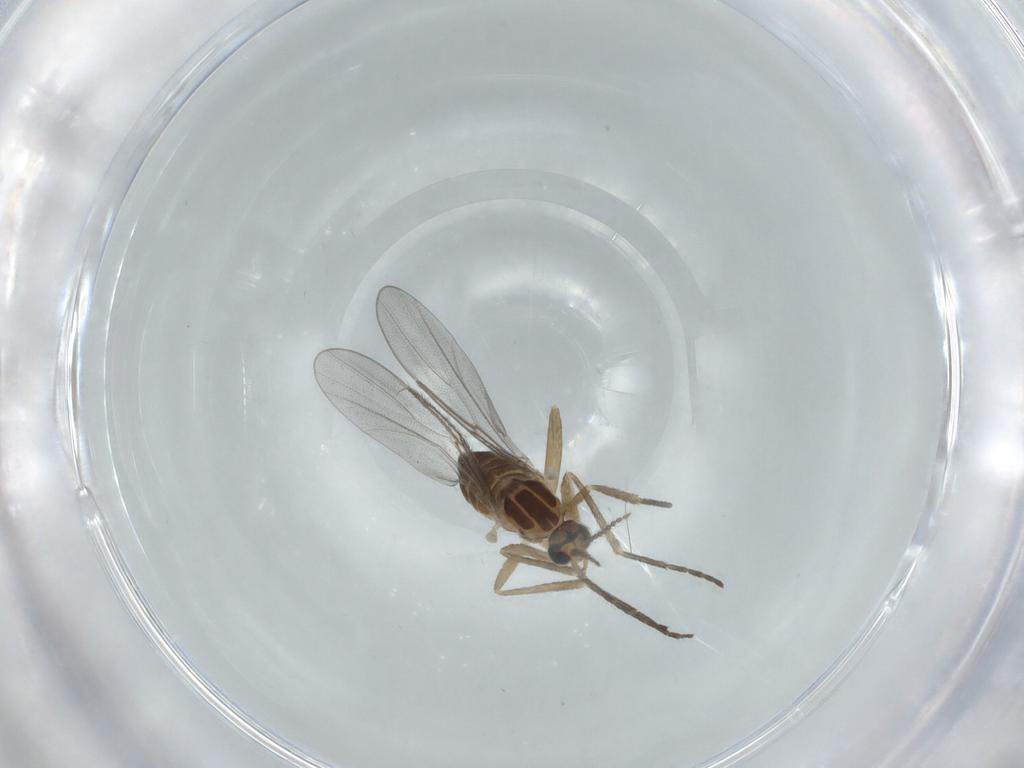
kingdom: Animalia
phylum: Arthropoda
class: Insecta
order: Diptera
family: Cecidomyiidae
